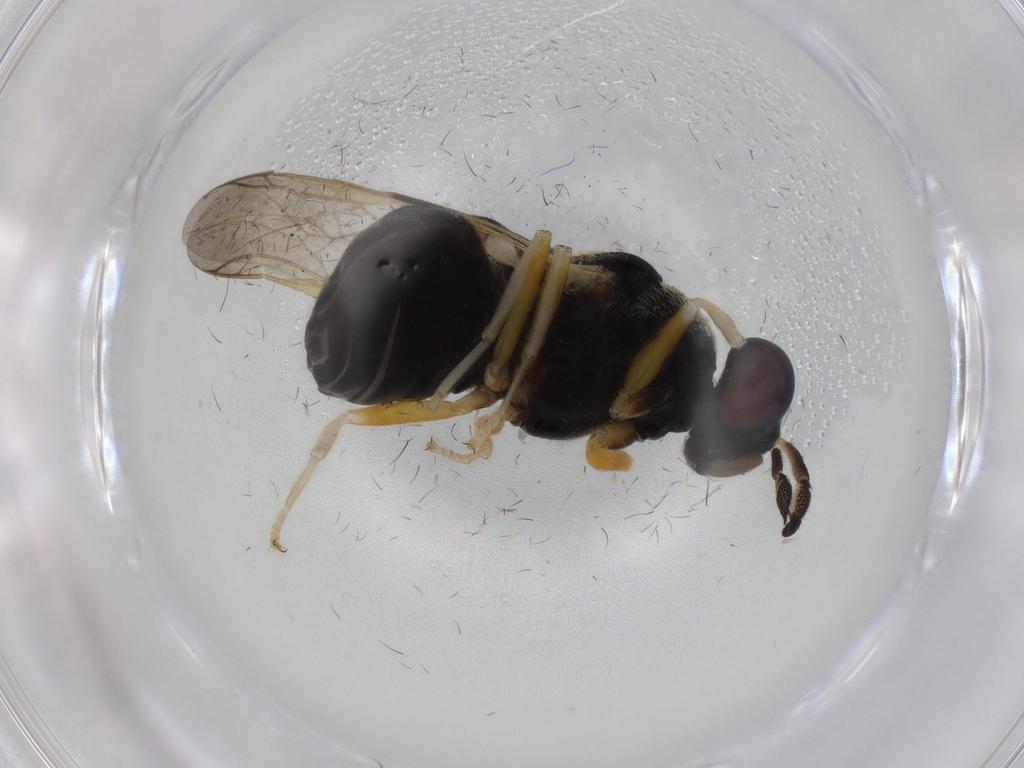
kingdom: Animalia
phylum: Arthropoda
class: Insecta
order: Diptera
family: Stratiomyidae
